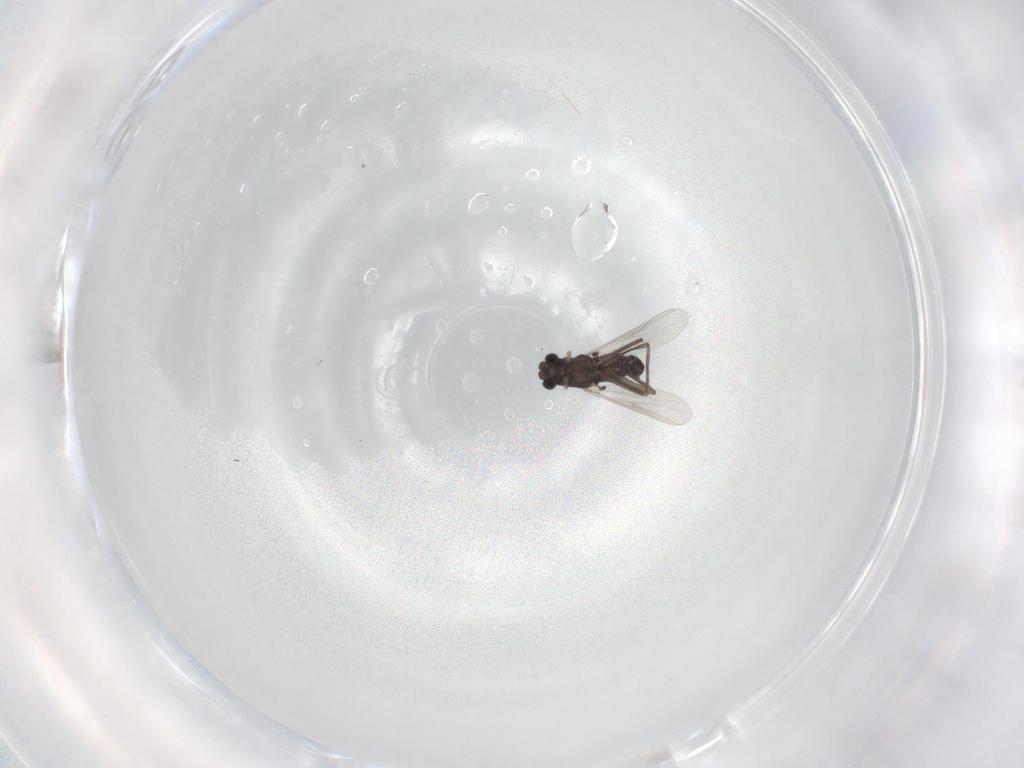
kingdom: Animalia
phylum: Arthropoda
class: Insecta
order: Diptera
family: Chironomidae
